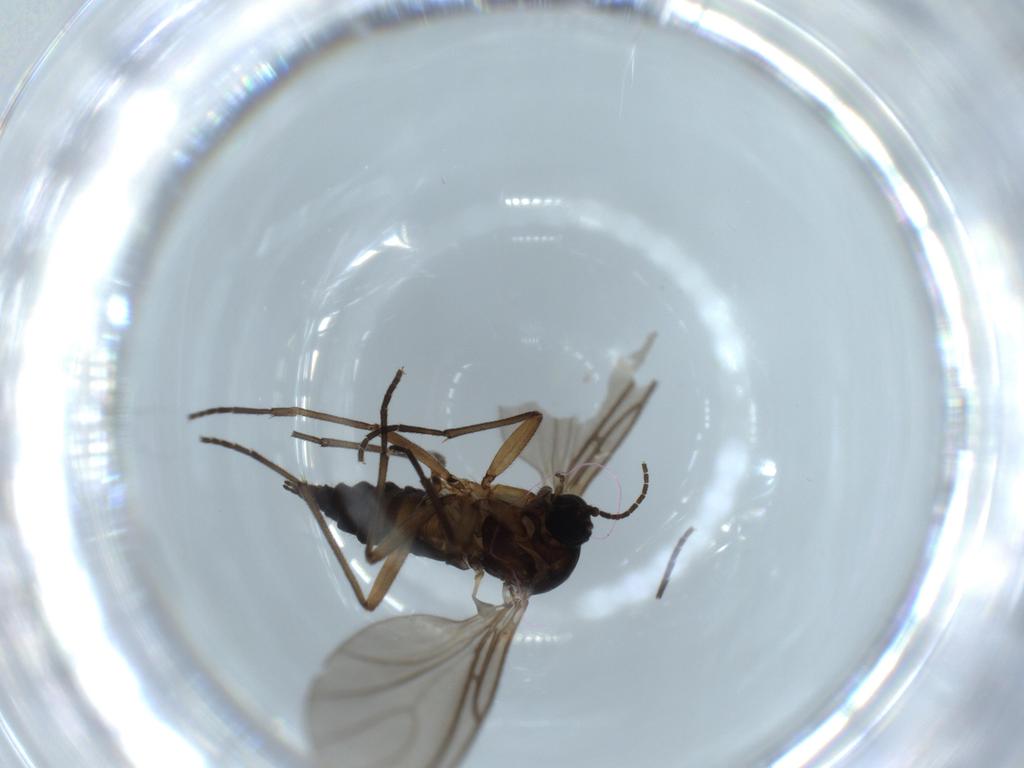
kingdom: Animalia
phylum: Arthropoda
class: Insecta
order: Diptera
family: Sciaridae
